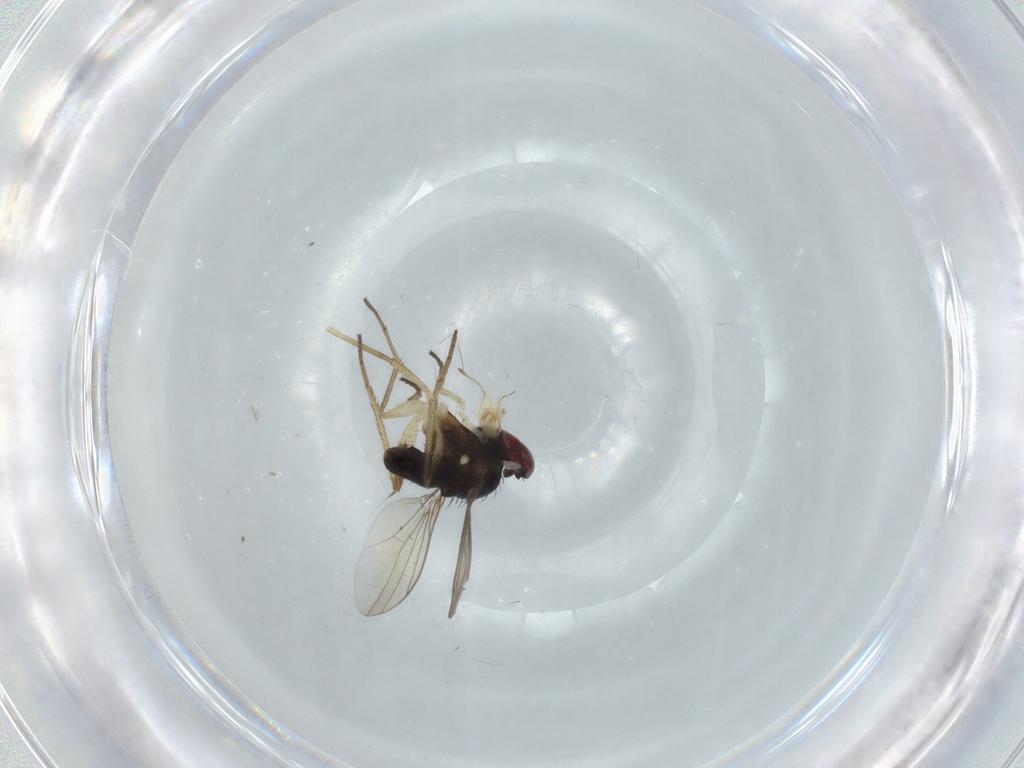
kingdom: Animalia
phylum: Arthropoda
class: Insecta
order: Diptera
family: Dolichopodidae
